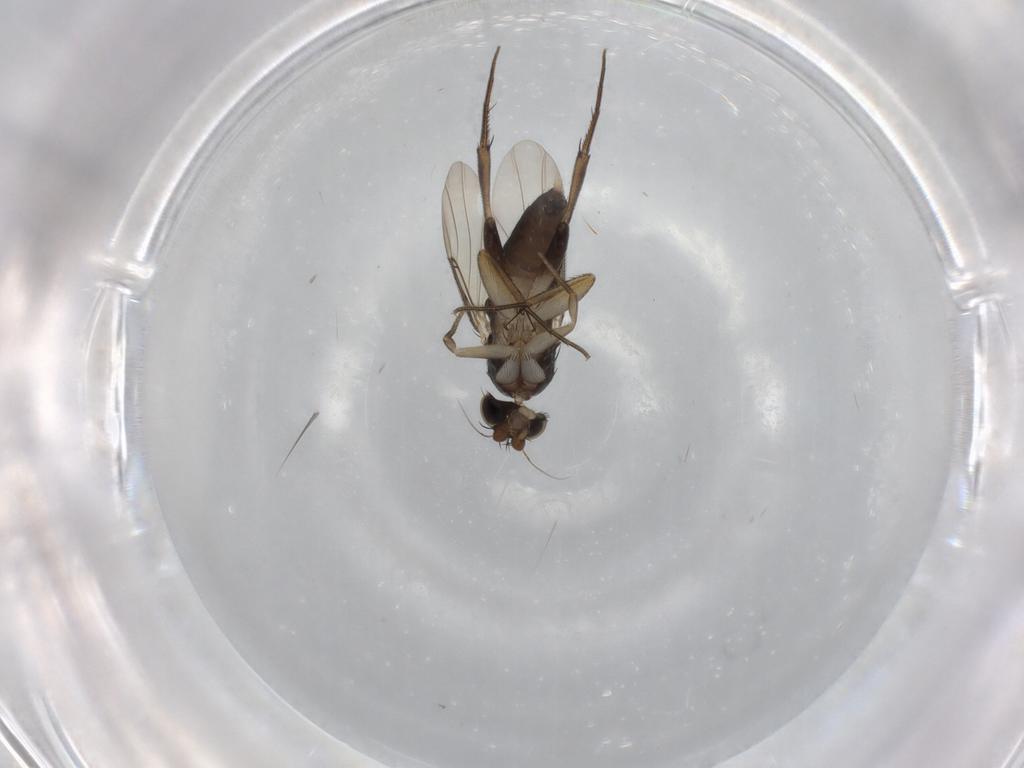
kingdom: Animalia
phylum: Arthropoda
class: Insecta
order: Diptera
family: Phoridae
